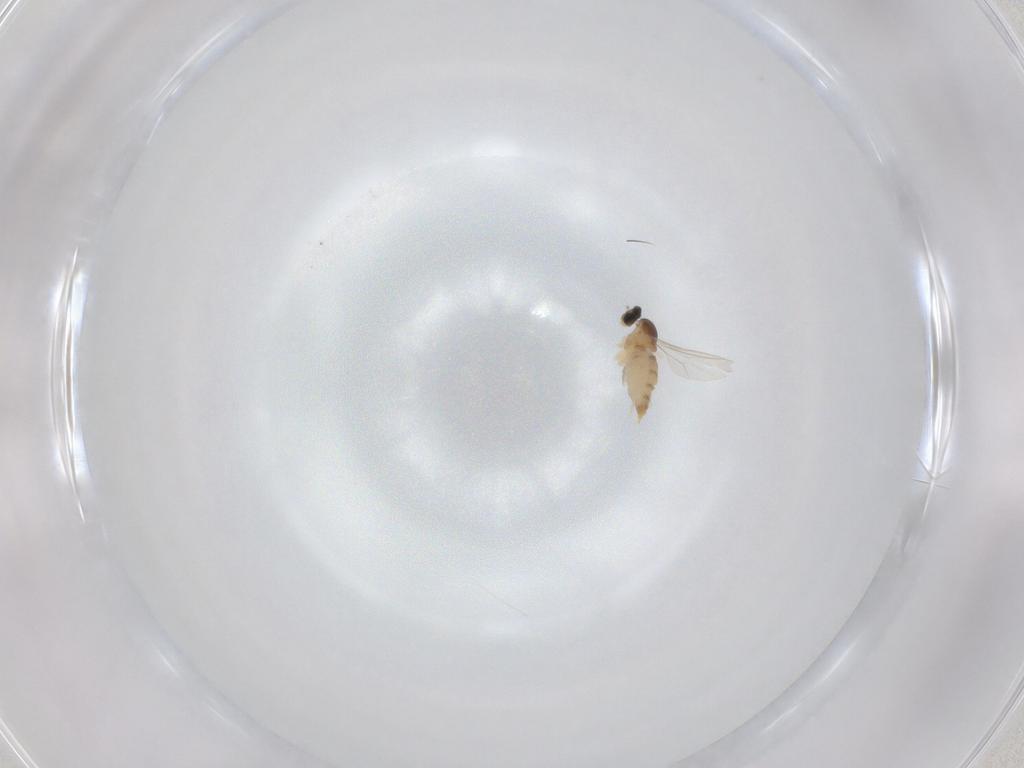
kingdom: Animalia
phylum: Arthropoda
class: Insecta
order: Diptera
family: Cecidomyiidae
